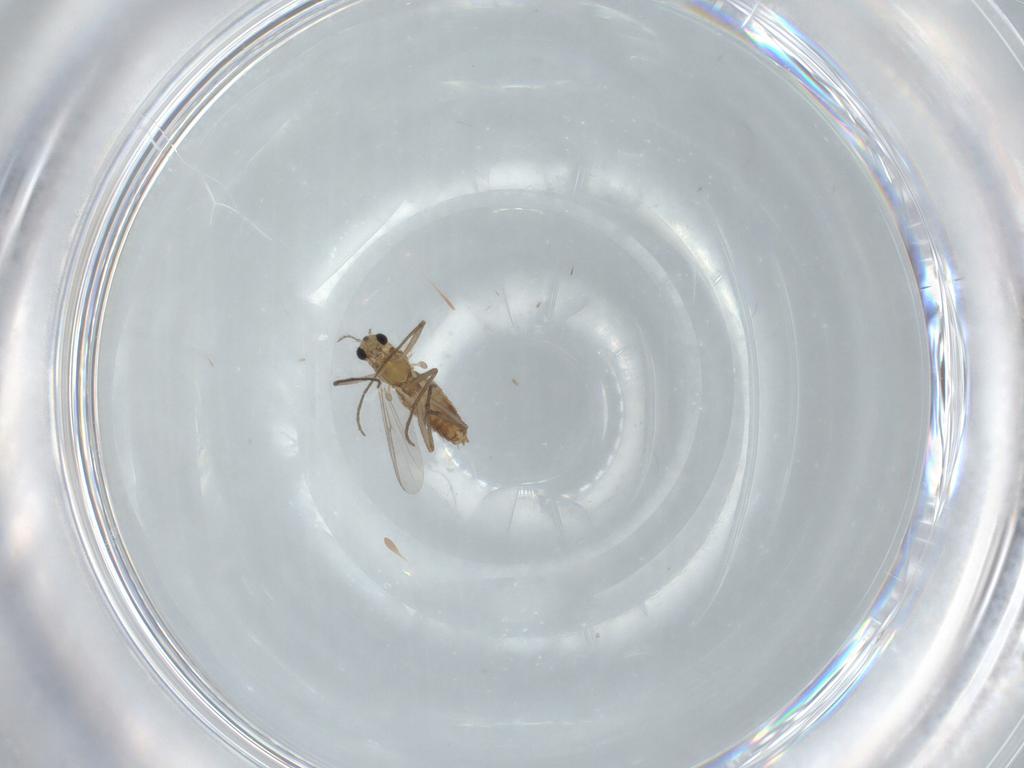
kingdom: Animalia
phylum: Arthropoda
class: Insecta
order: Diptera
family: Chironomidae
